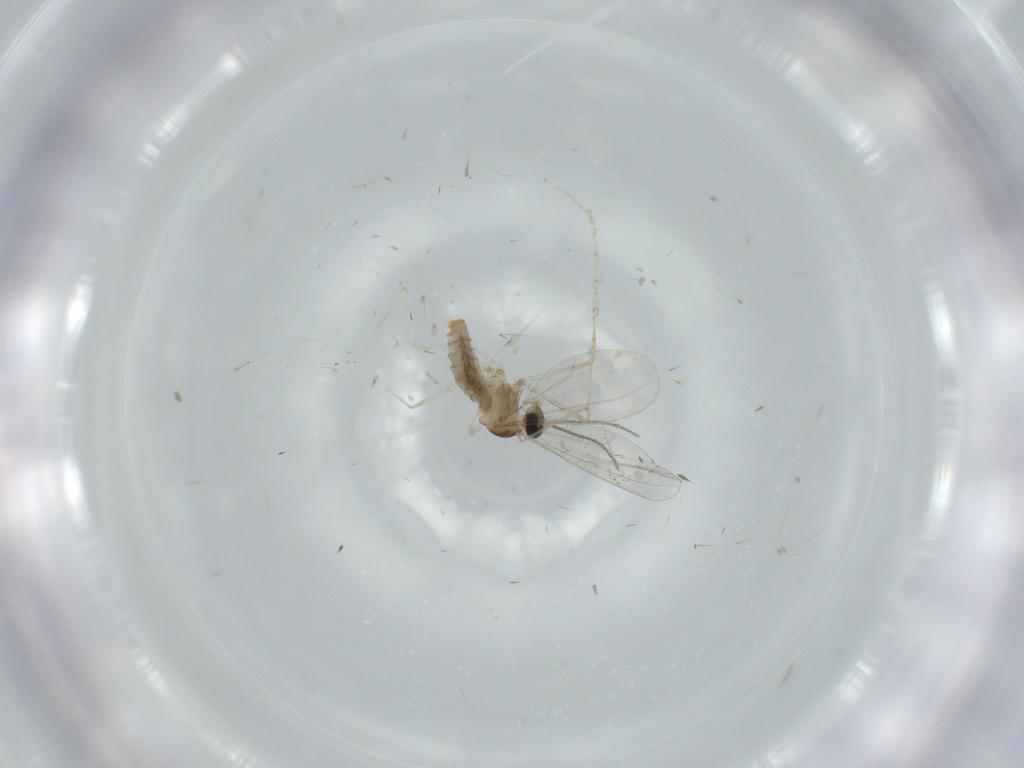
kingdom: Animalia
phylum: Arthropoda
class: Insecta
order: Diptera
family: Cecidomyiidae
